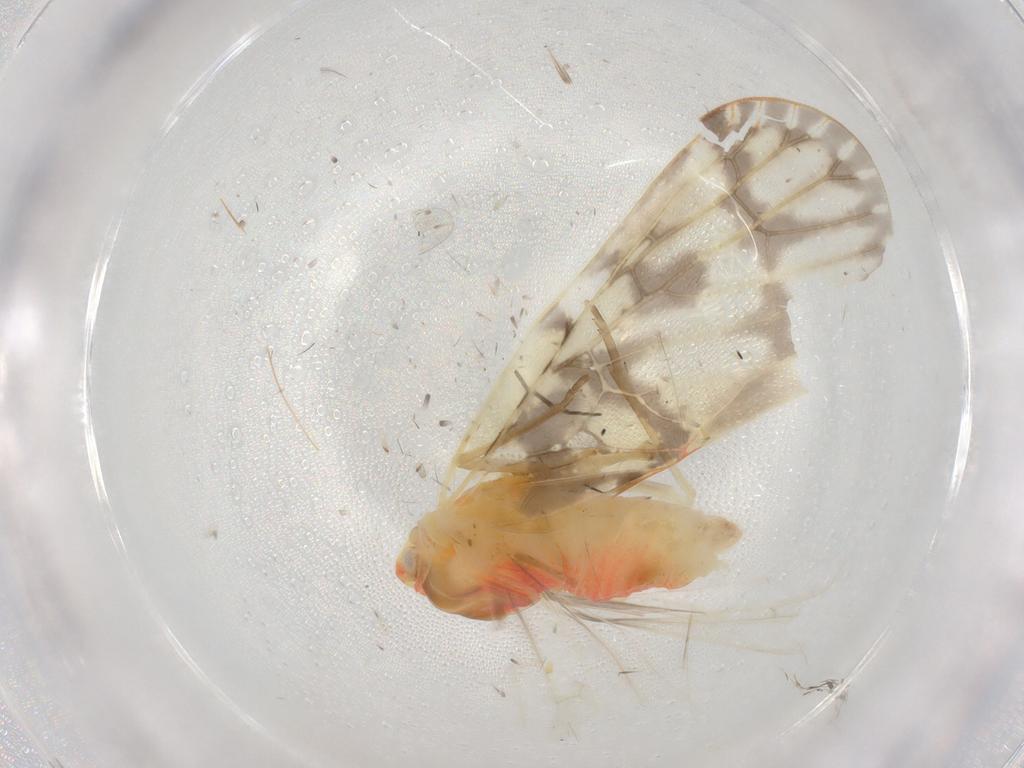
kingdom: Animalia
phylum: Arthropoda
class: Insecta
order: Hemiptera
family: Derbidae
